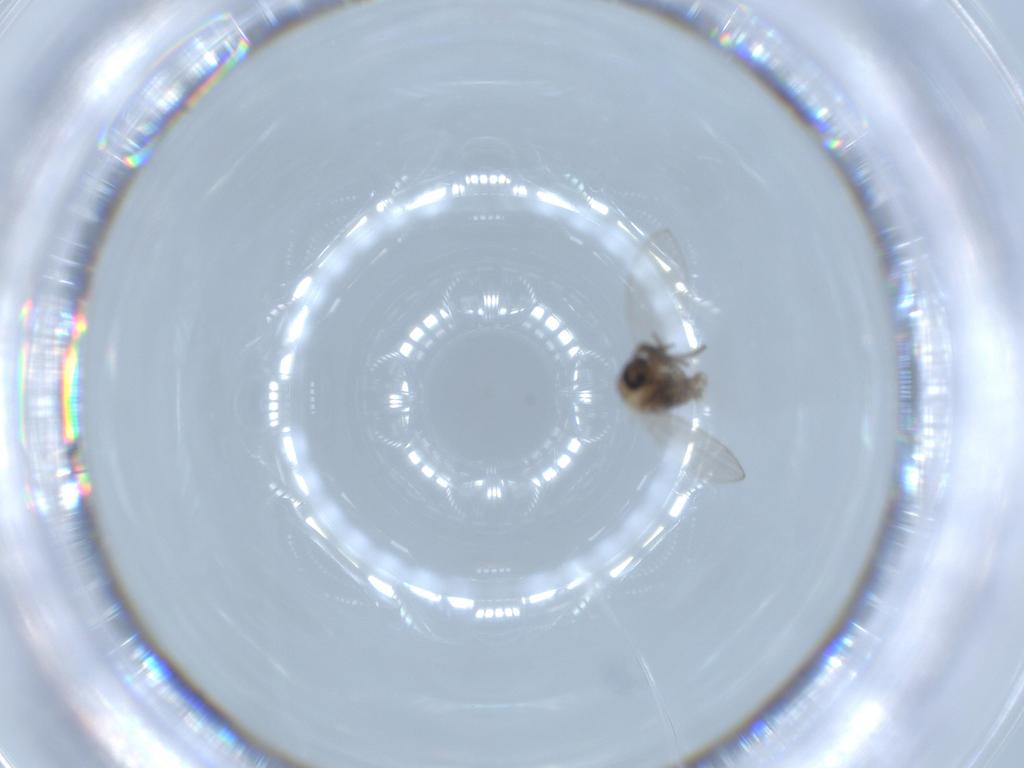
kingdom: Animalia
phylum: Arthropoda
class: Insecta
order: Diptera
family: Psychodidae
